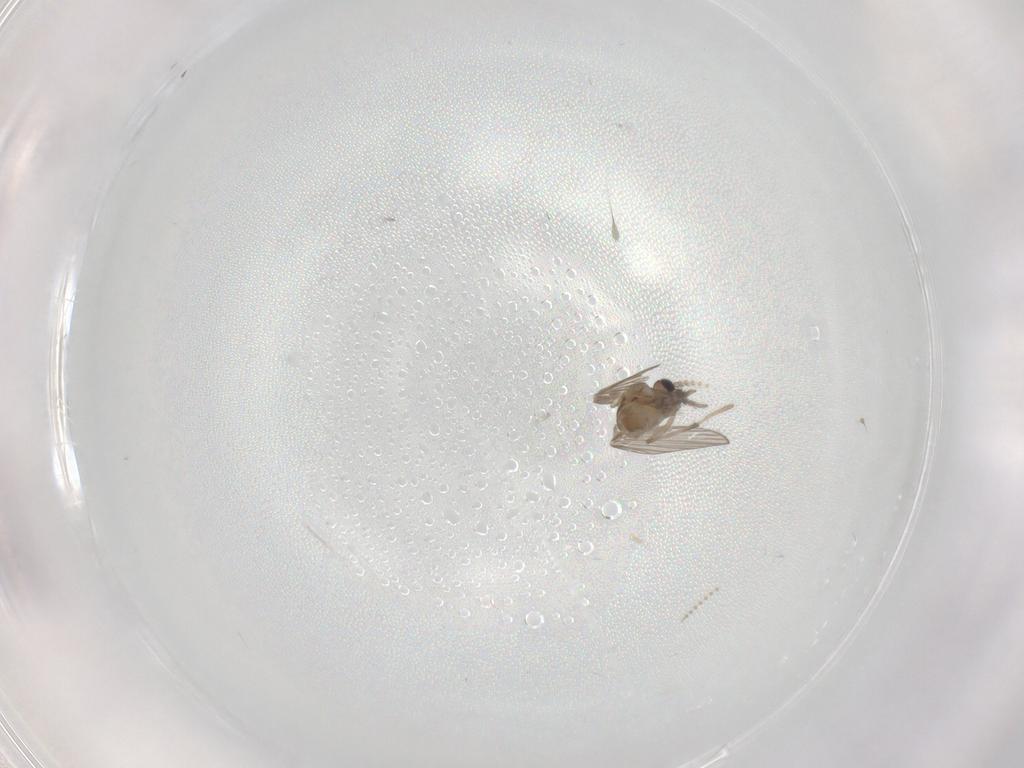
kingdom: Animalia
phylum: Arthropoda
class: Insecta
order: Diptera
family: Psychodidae
